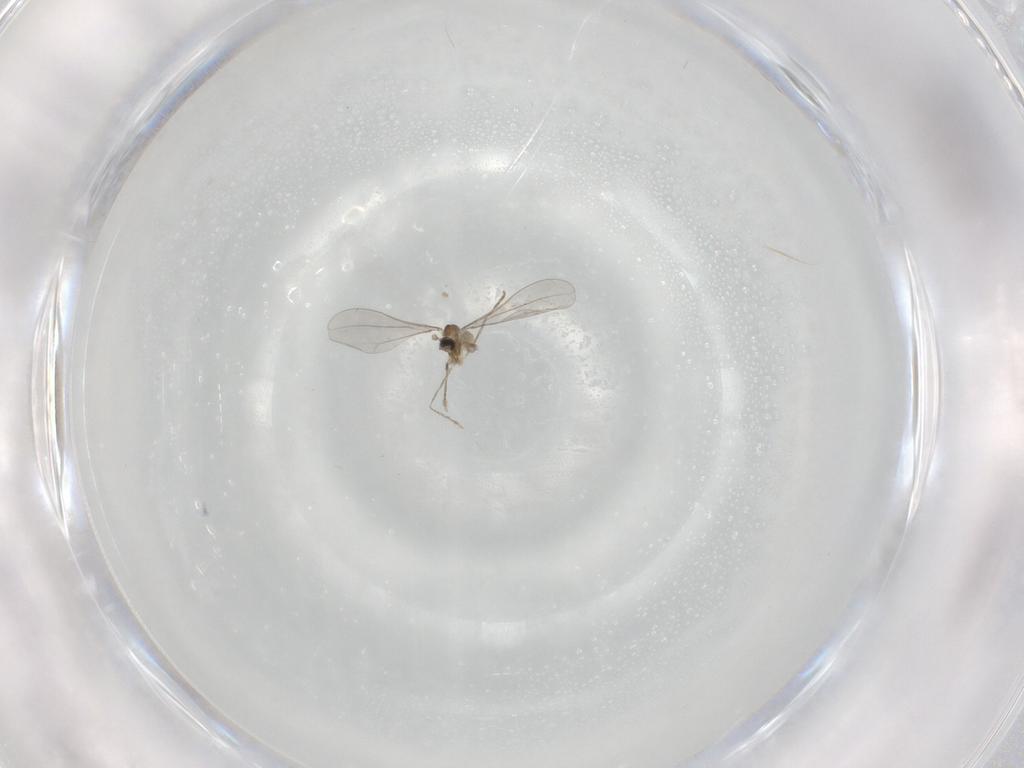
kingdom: Animalia
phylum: Arthropoda
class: Insecta
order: Diptera
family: Cecidomyiidae
